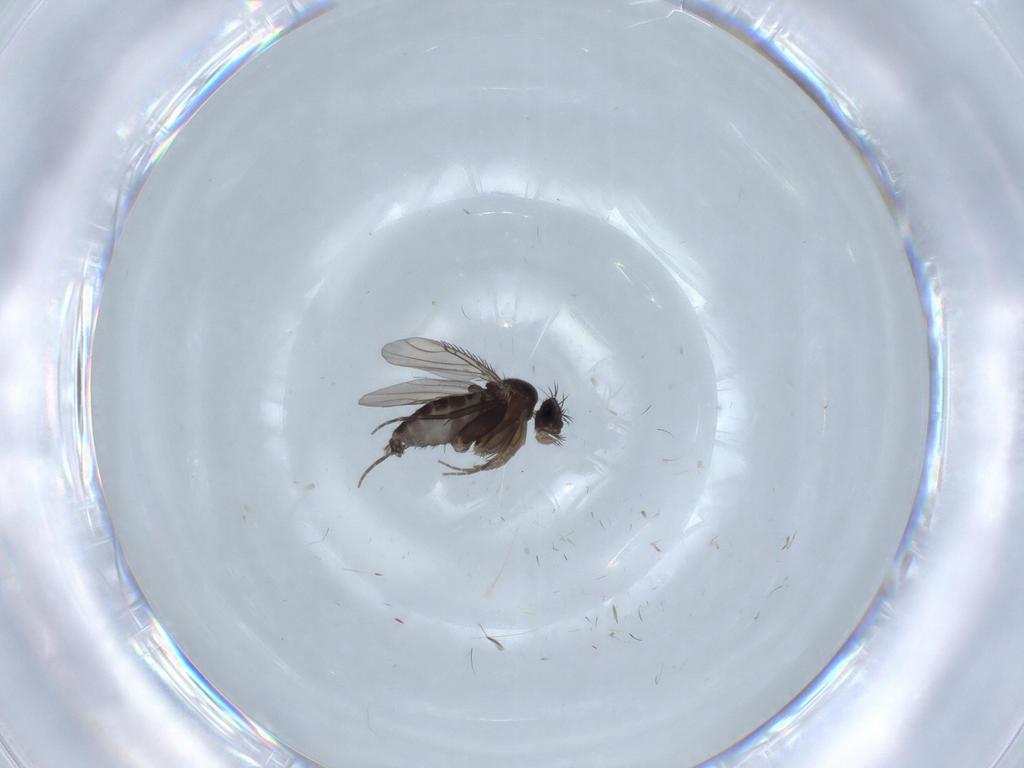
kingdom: Animalia
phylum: Arthropoda
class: Insecta
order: Diptera
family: Phoridae
